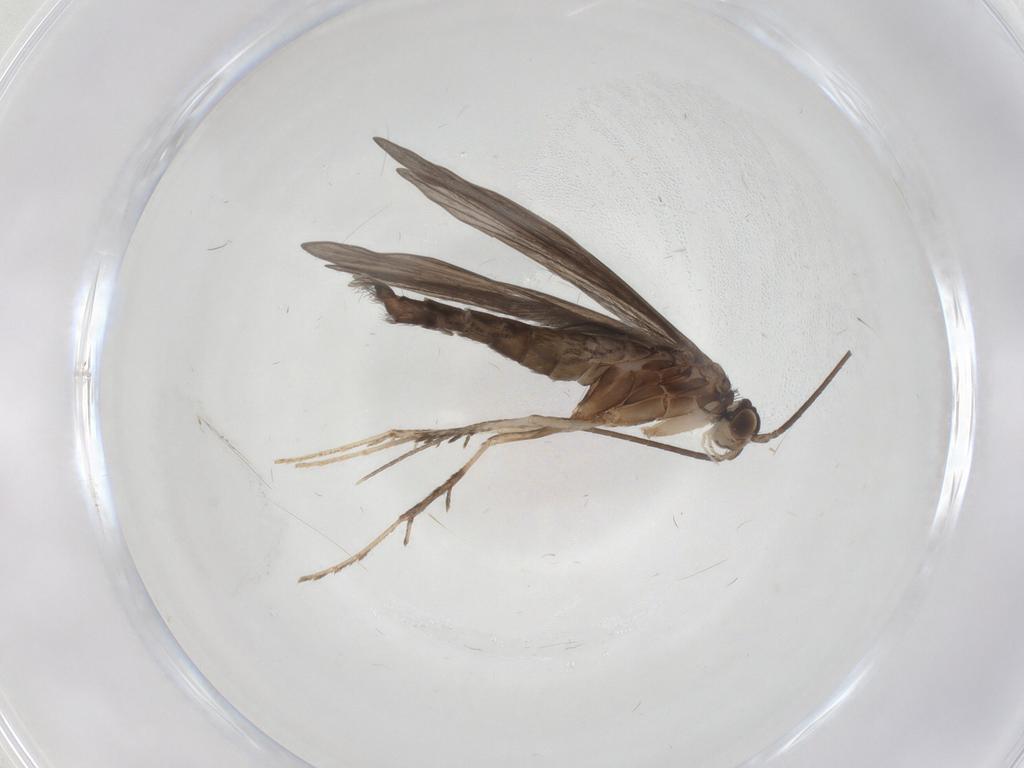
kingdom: Animalia
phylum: Arthropoda
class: Insecta
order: Trichoptera
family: Xiphocentronidae
